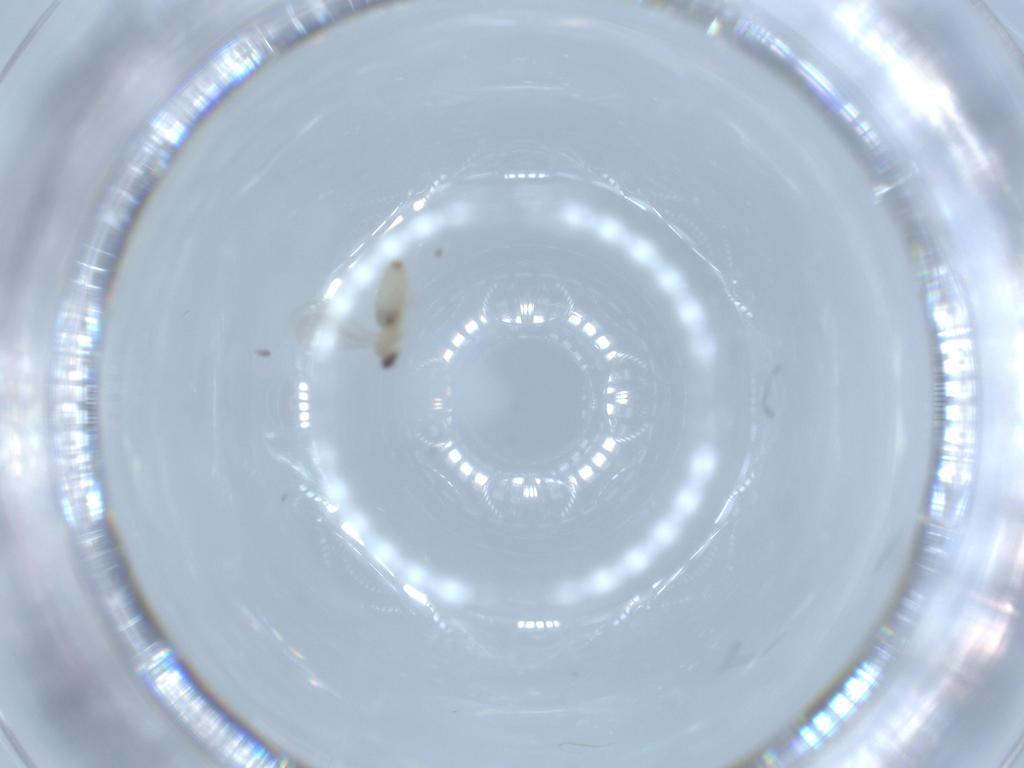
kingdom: Animalia
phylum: Arthropoda
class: Insecta
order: Diptera
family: Cecidomyiidae
